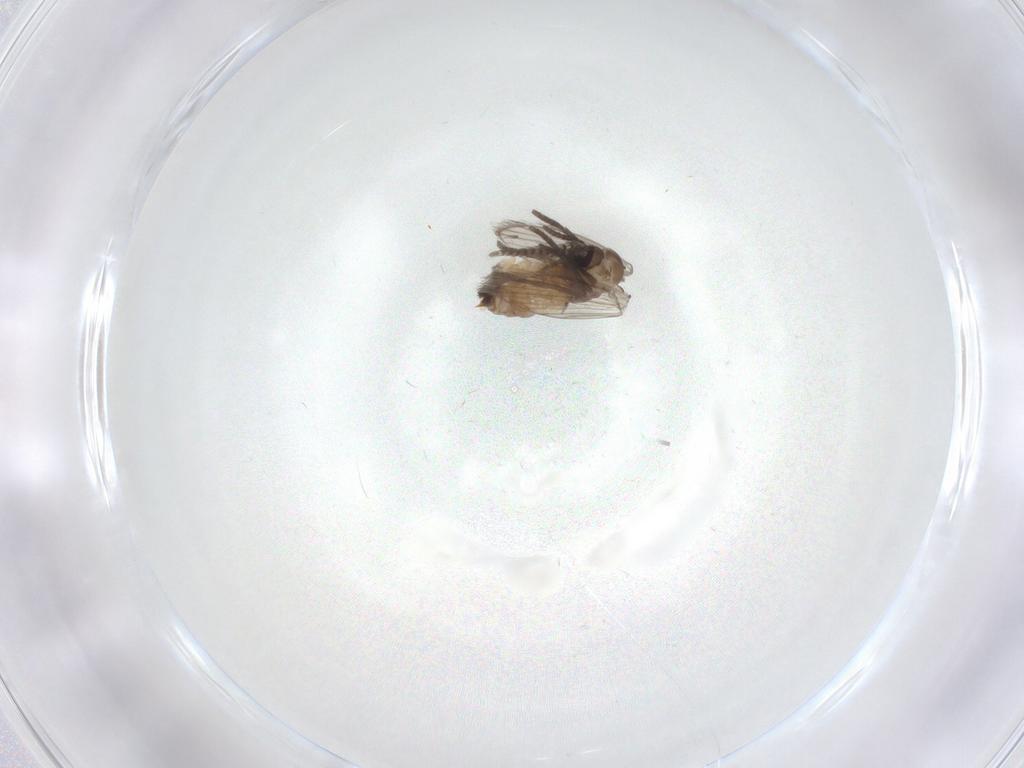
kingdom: Animalia
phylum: Arthropoda
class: Insecta
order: Diptera
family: Psychodidae
